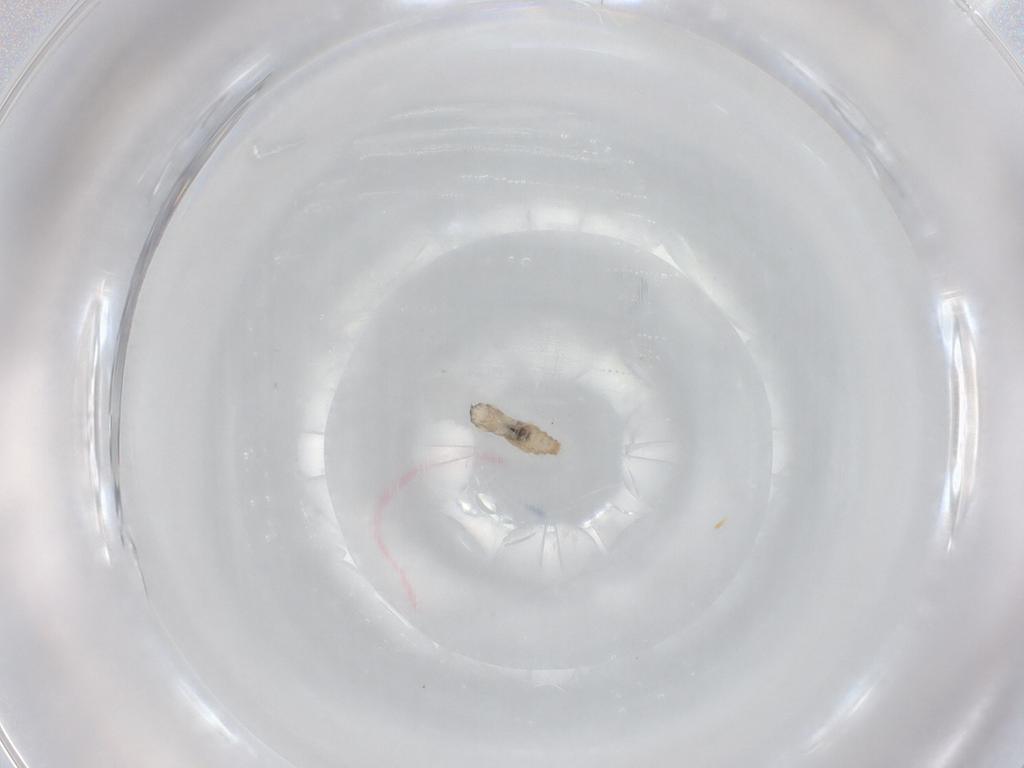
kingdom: Animalia
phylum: Arthropoda
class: Insecta
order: Diptera
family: Cecidomyiidae
